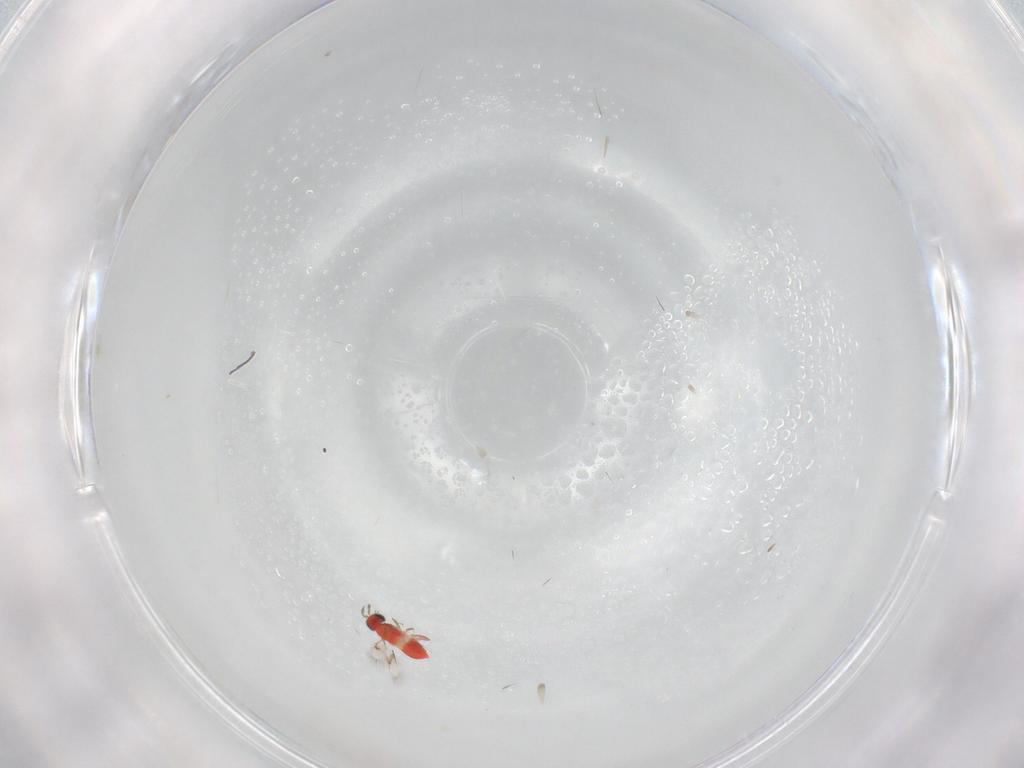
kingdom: Animalia
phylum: Arthropoda
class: Insecta
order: Hymenoptera
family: Trichogrammatidae
